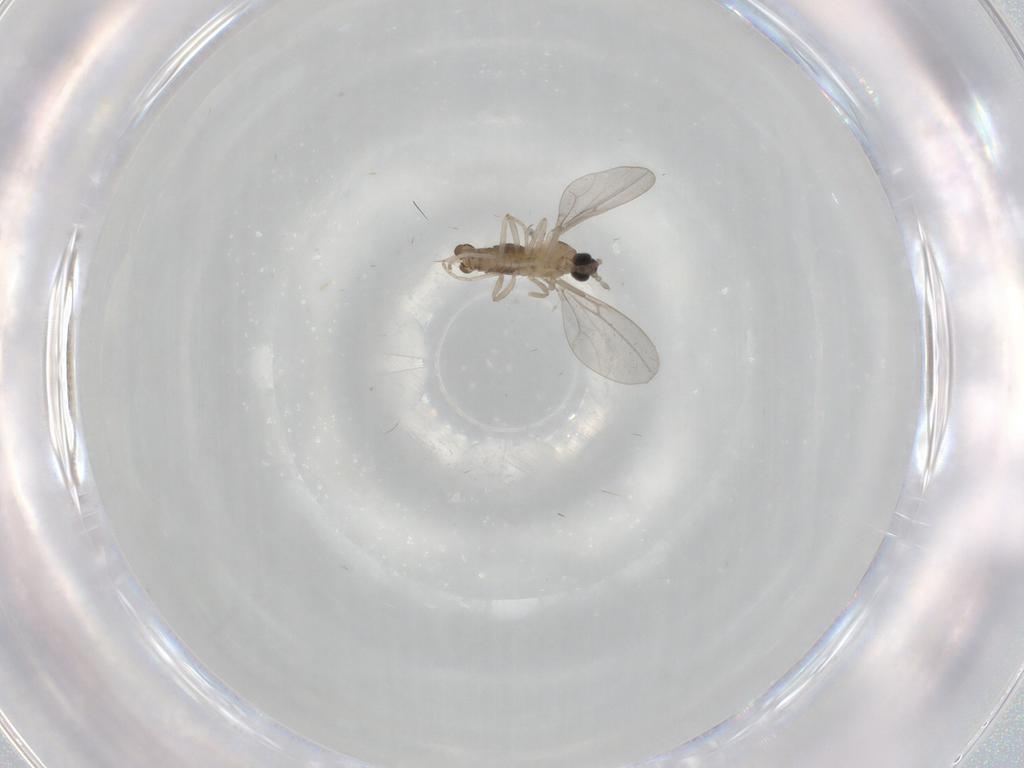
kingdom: Animalia
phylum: Arthropoda
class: Insecta
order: Diptera
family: Cecidomyiidae
